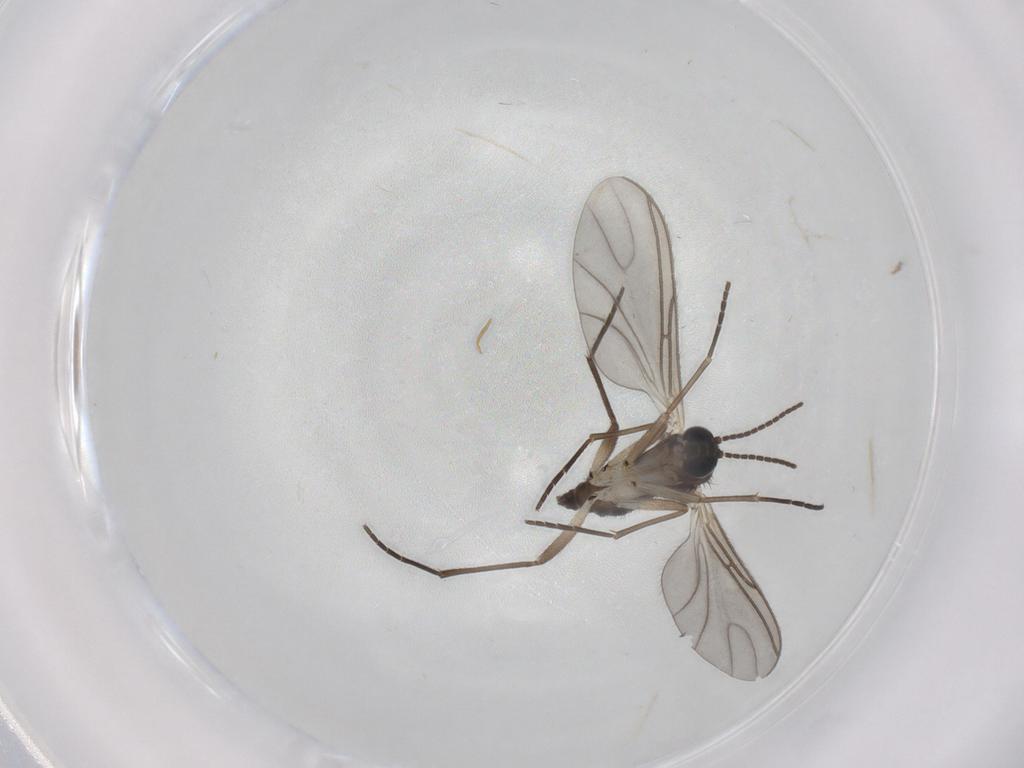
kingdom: Animalia
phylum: Arthropoda
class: Insecta
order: Diptera
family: Sciaridae
